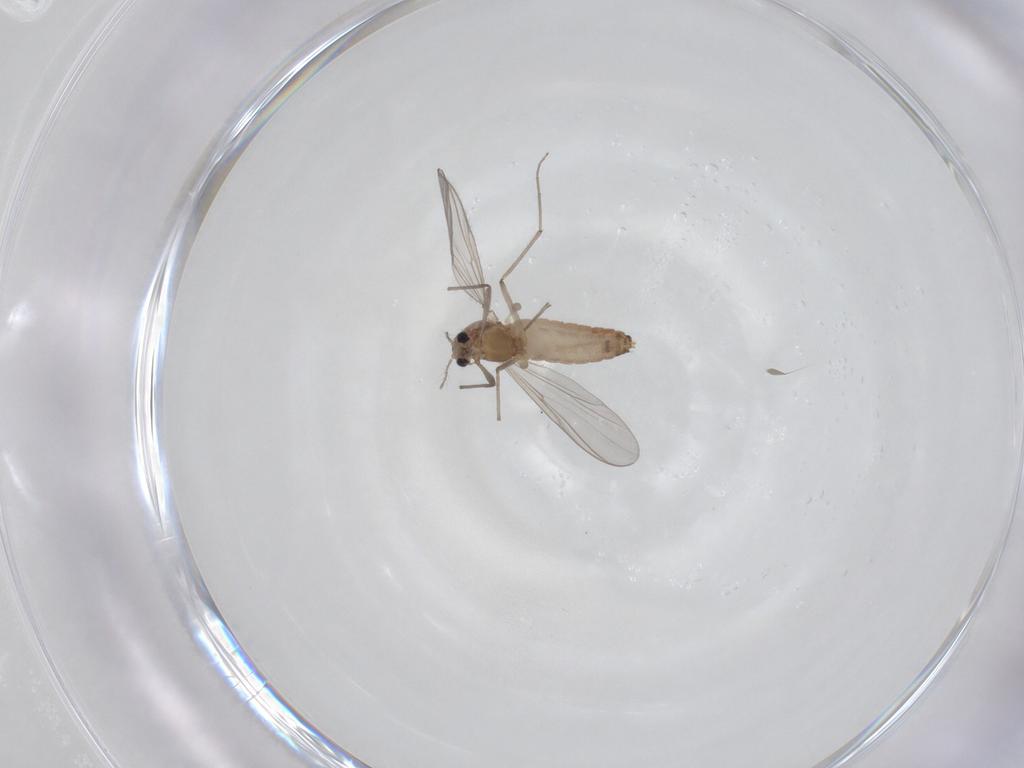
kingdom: Animalia
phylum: Arthropoda
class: Insecta
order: Diptera
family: Chironomidae
